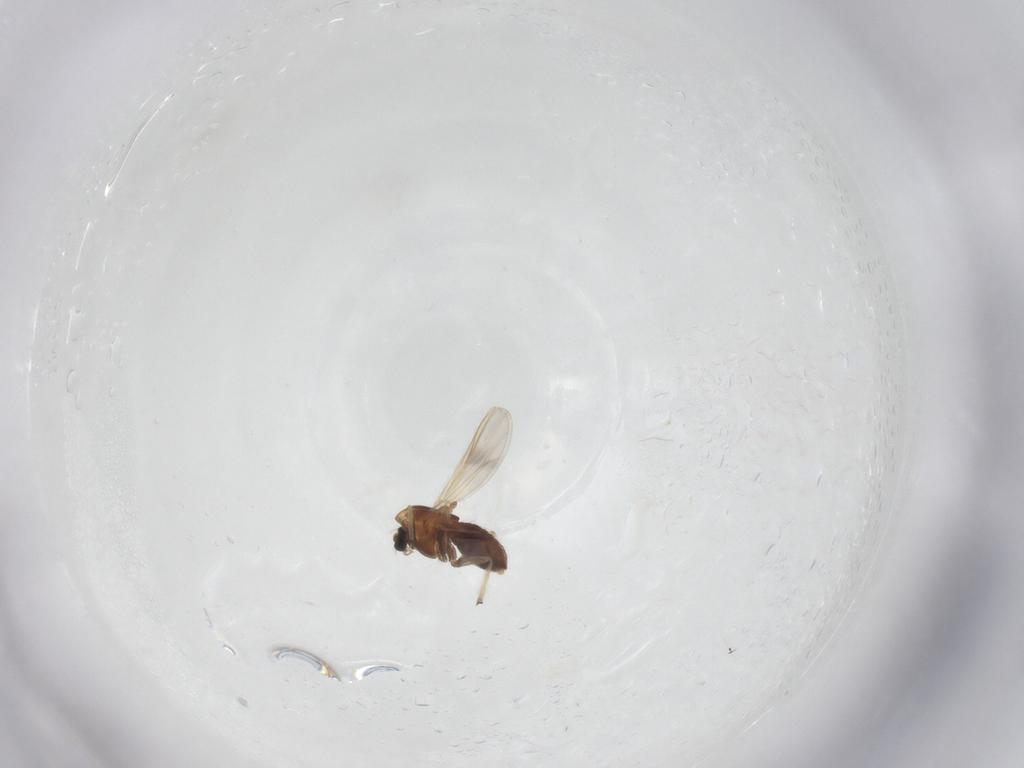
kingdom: Animalia
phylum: Arthropoda
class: Insecta
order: Diptera
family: Chironomidae
